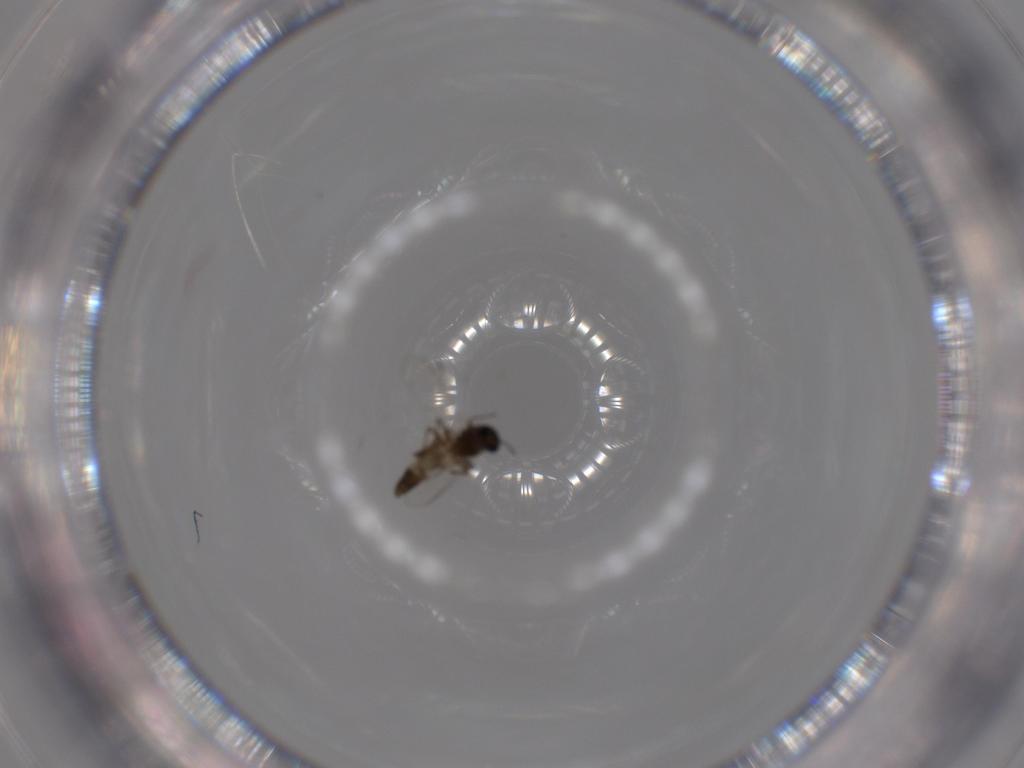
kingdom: Animalia
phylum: Arthropoda
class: Insecta
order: Diptera
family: Chironomidae
